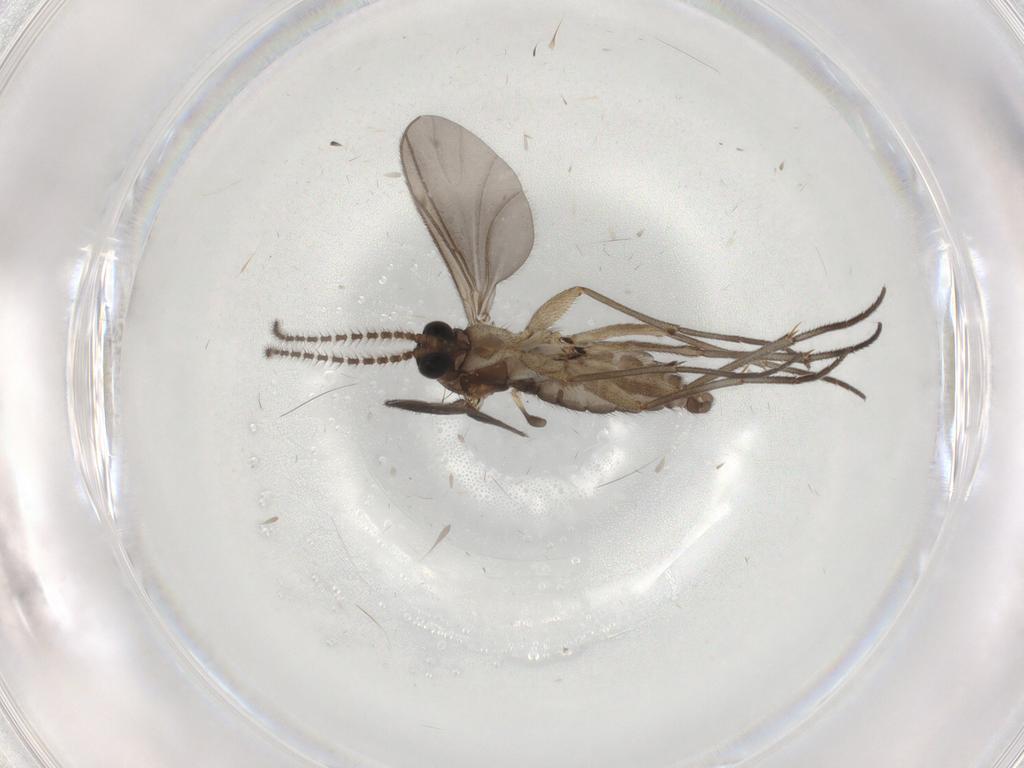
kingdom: Animalia
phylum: Arthropoda
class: Insecta
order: Diptera
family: Sciaridae
